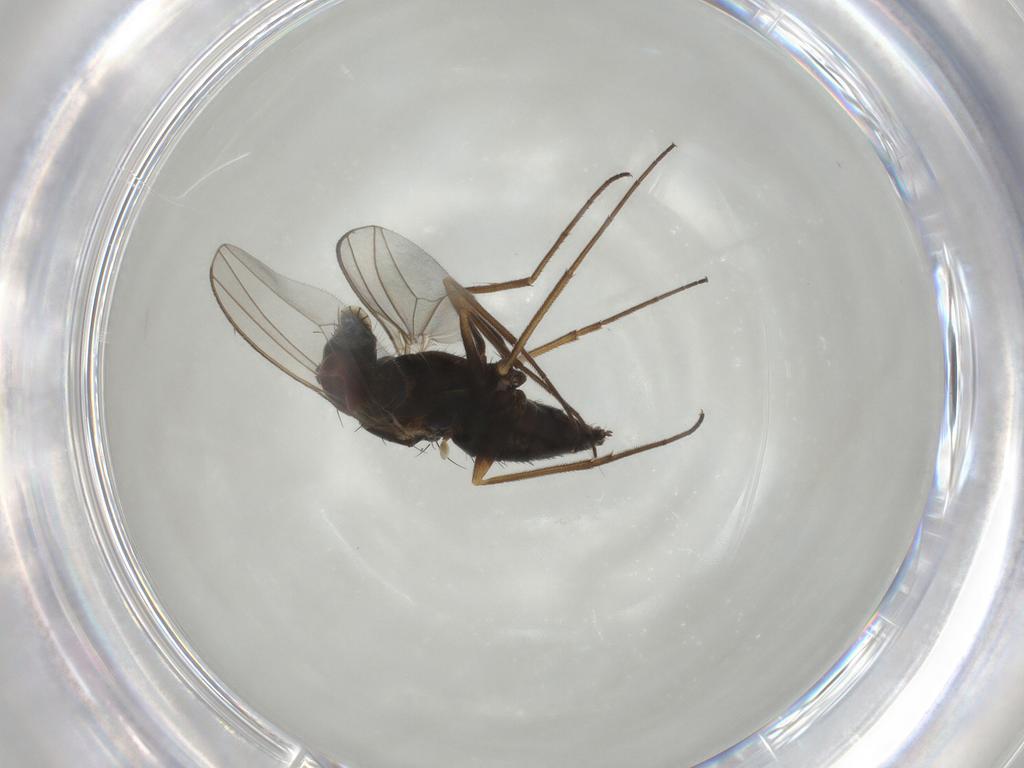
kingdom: Animalia
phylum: Arthropoda
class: Insecta
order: Diptera
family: Dolichopodidae
